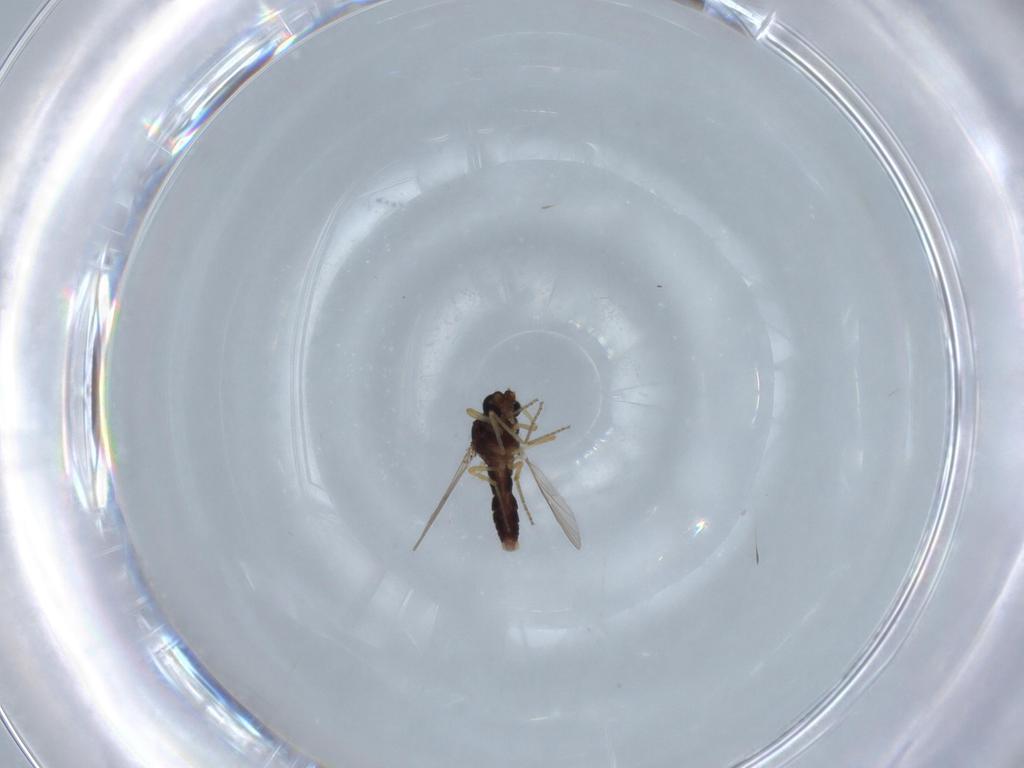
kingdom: Animalia
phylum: Arthropoda
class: Insecta
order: Diptera
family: Ceratopogonidae
